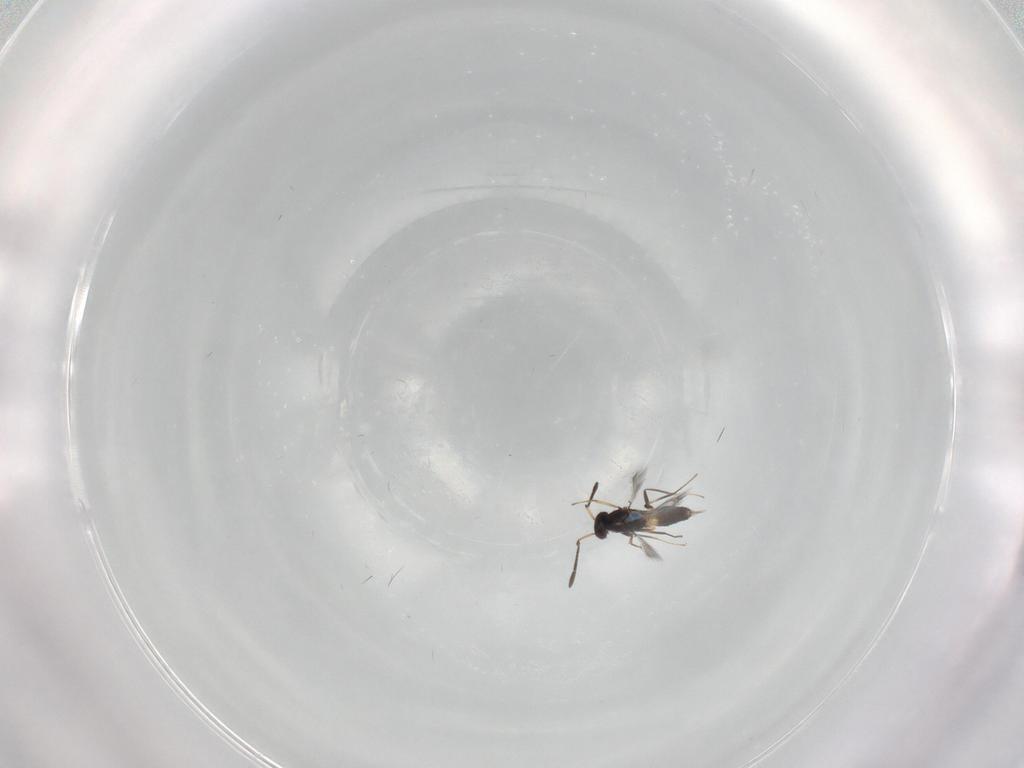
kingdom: Animalia
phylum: Arthropoda
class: Insecta
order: Hymenoptera
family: Mymaridae
